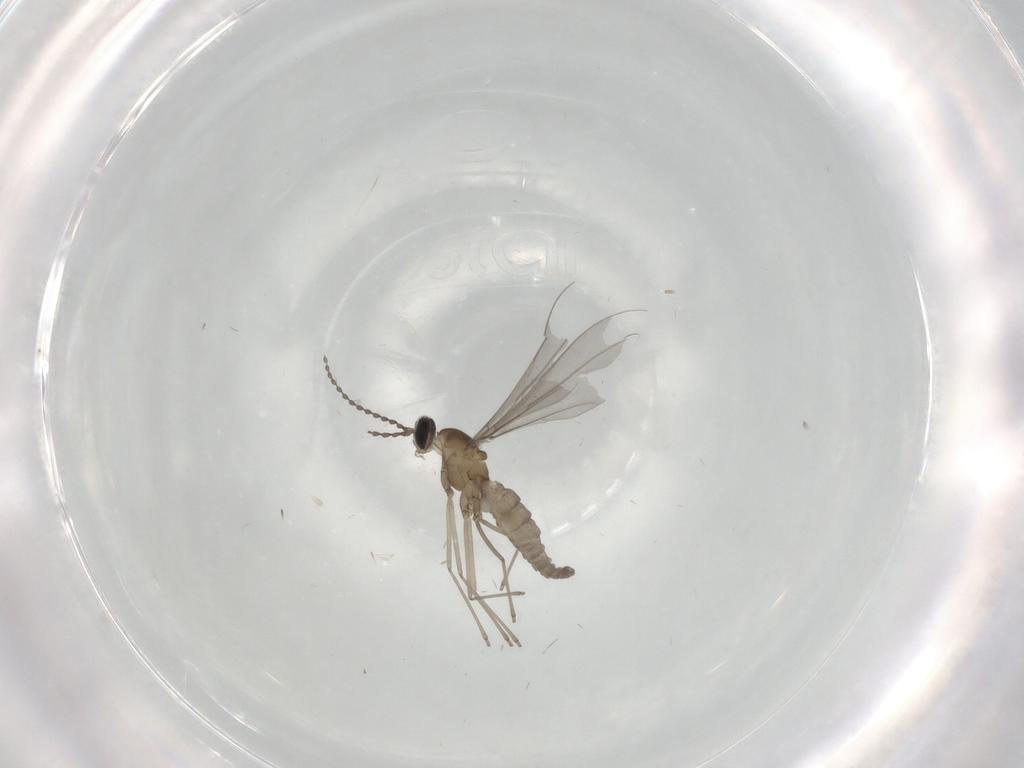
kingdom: Animalia
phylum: Arthropoda
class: Insecta
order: Diptera
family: Cecidomyiidae
